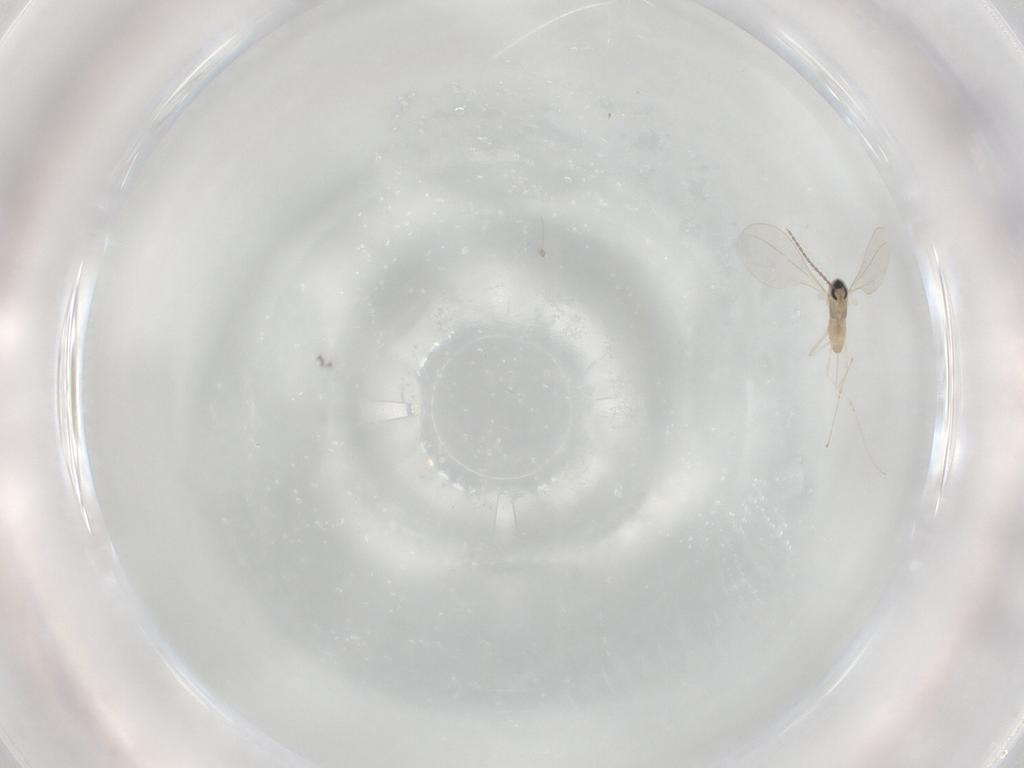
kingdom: Animalia
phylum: Arthropoda
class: Insecta
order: Diptera
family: Cecidomyiidae
